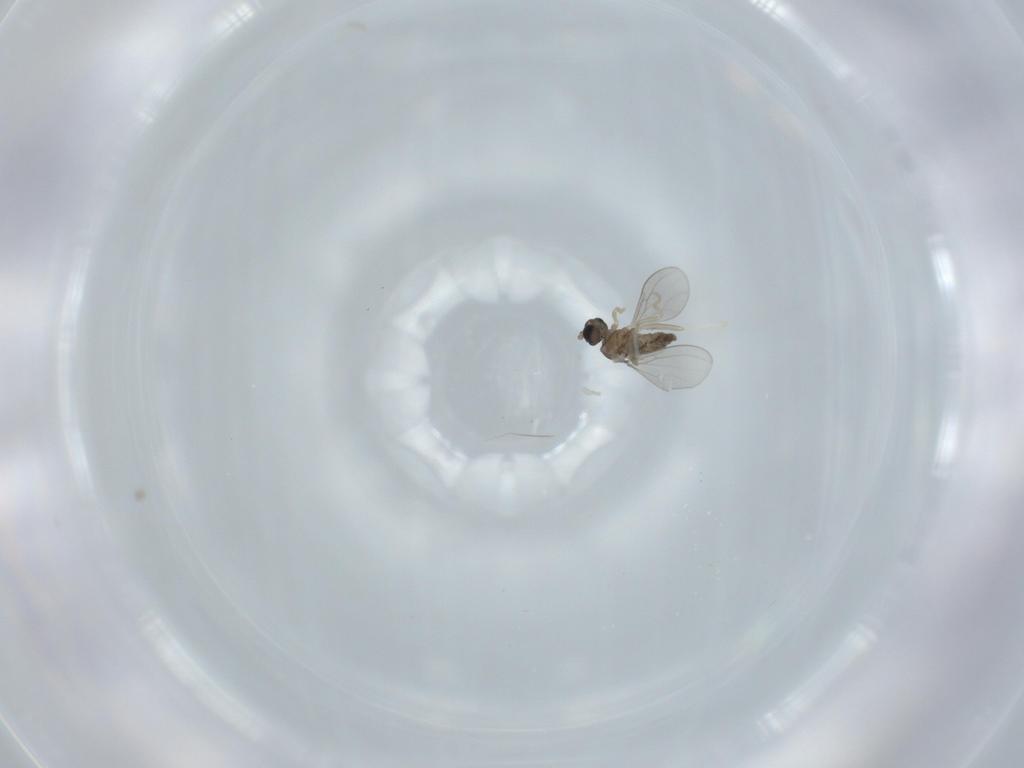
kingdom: Animalia
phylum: Arthropoda
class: Insecta
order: Diptera
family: Cecidomyiidae
